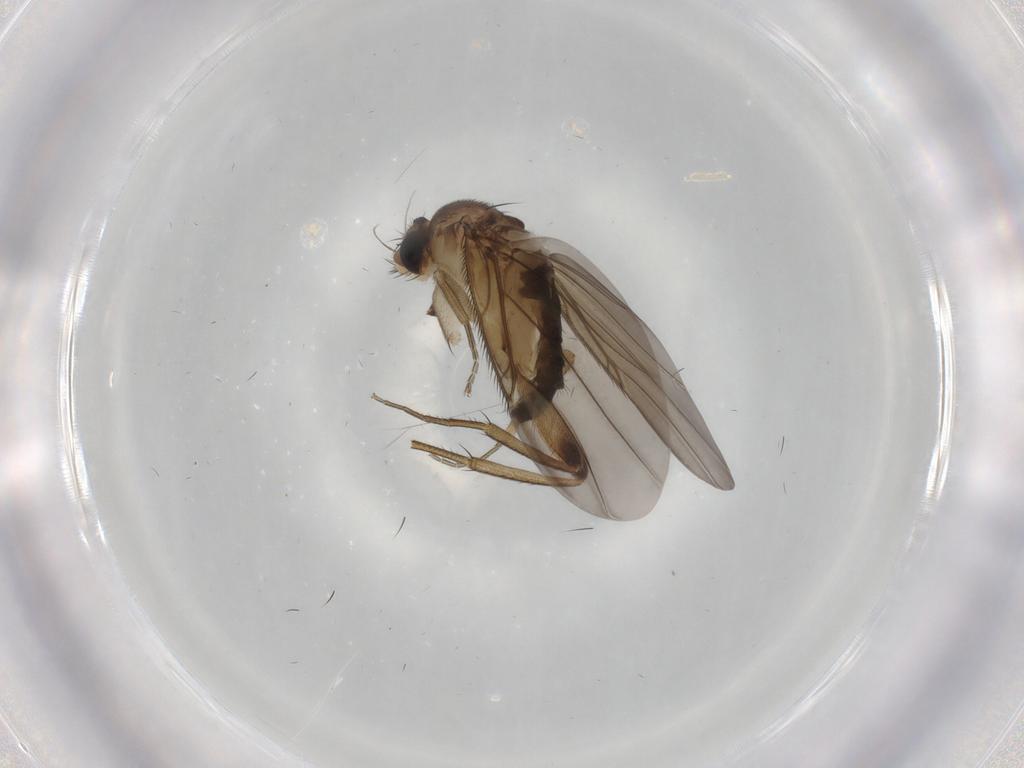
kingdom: Animalia
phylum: Arthropoda
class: Insecta
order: Diptera
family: Phoridae
